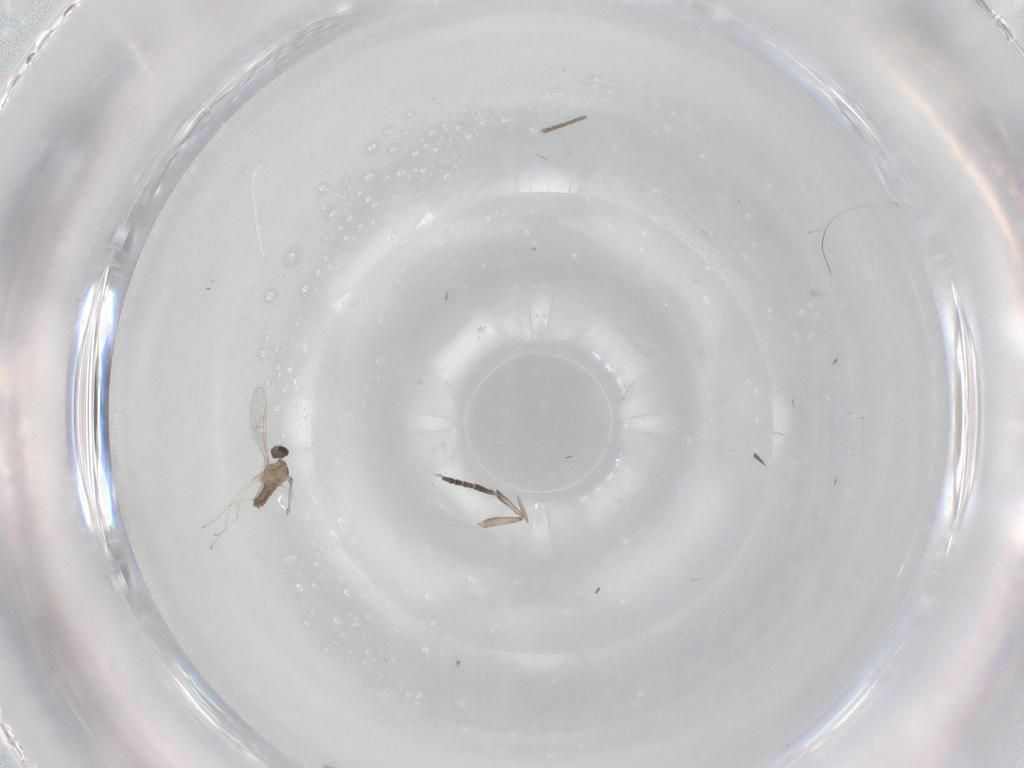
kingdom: Animalia
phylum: Arthropoda
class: Insecta
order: Diptera
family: Cecidomyiidae
